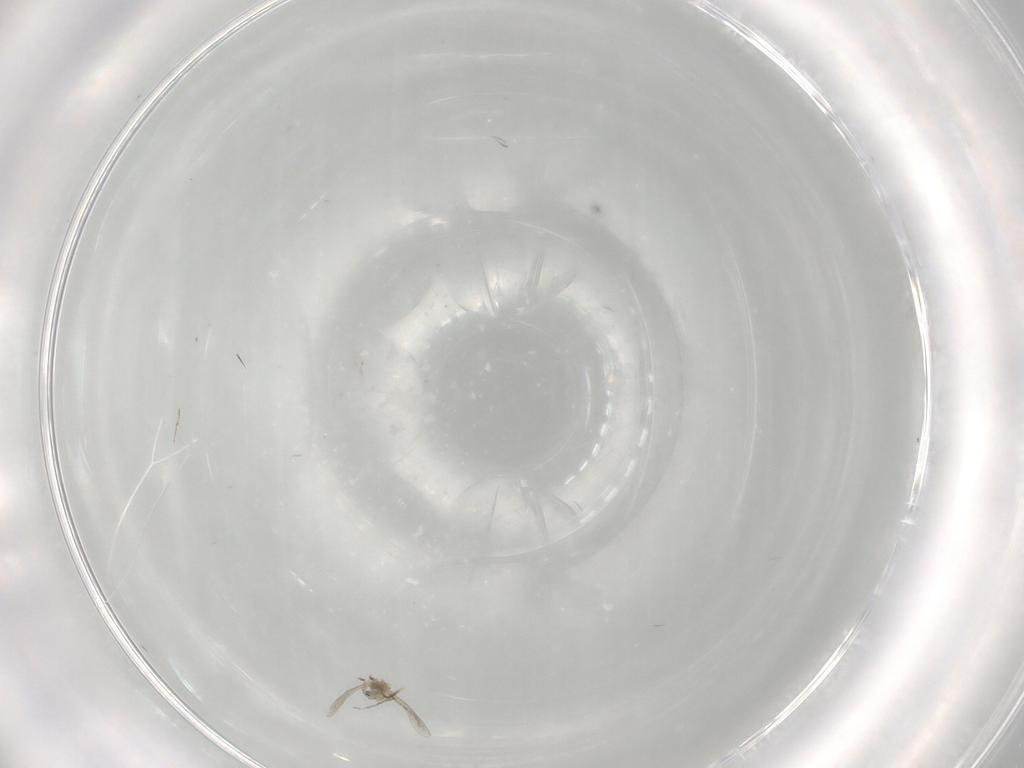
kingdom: Animalia
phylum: Arthropoda
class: Insecta
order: Diptera
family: Cecidomyiidae
